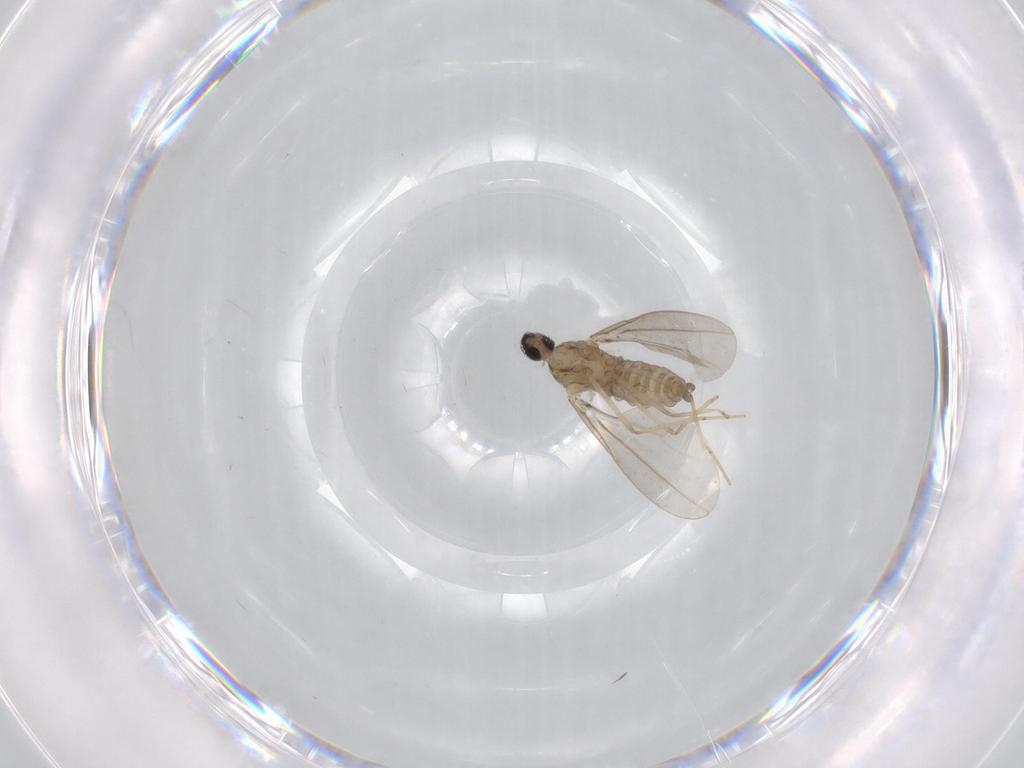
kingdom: Animalia
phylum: Arthropoda
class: Insecta
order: Diptera
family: Cecidomyiidae
